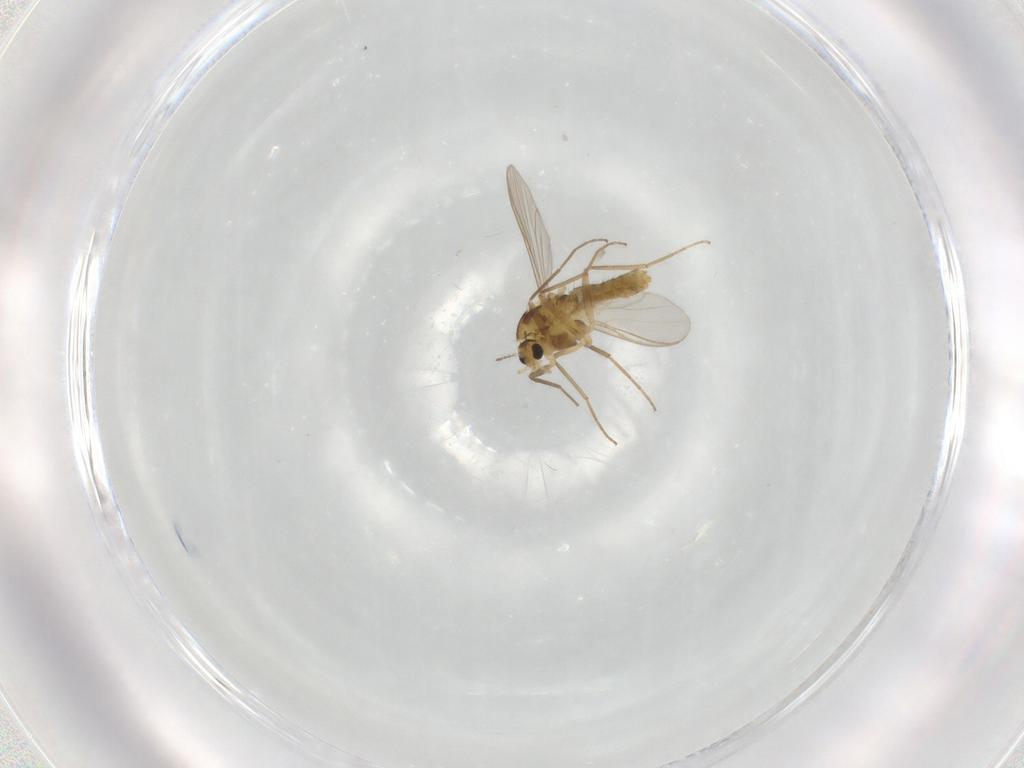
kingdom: Animalia
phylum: Arthropoda
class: Insecta
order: Diptera
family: Chironomidae
